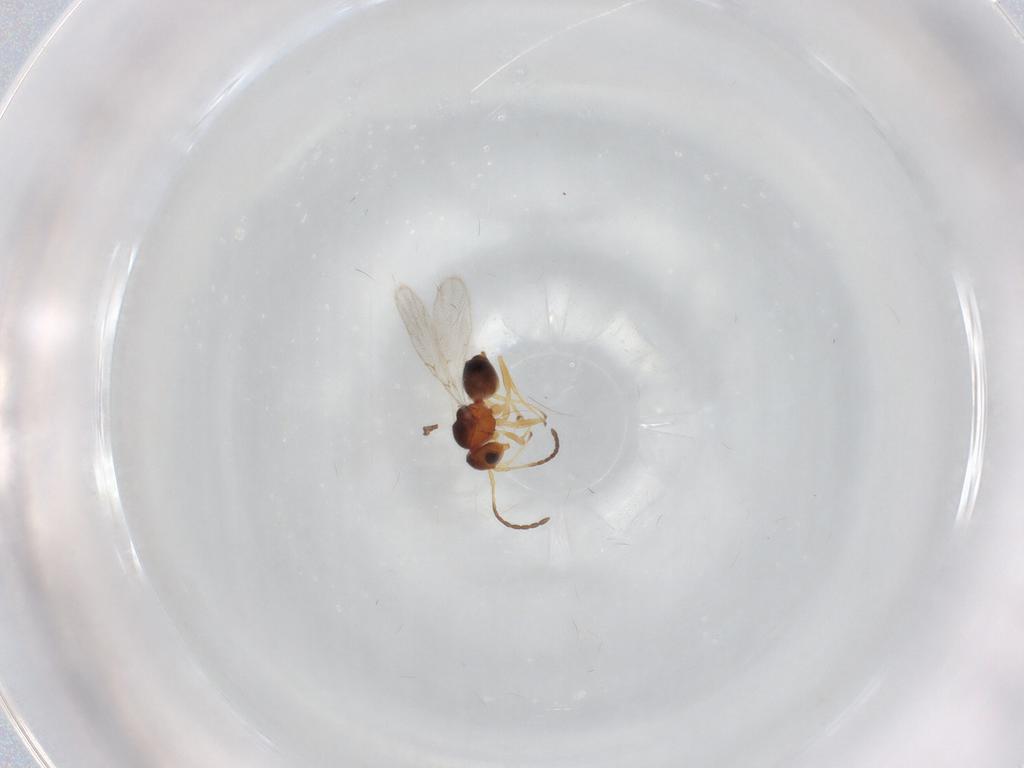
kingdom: Animalia
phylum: Arthropoda
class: Insecta
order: Hymenoptera
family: Figitidae
